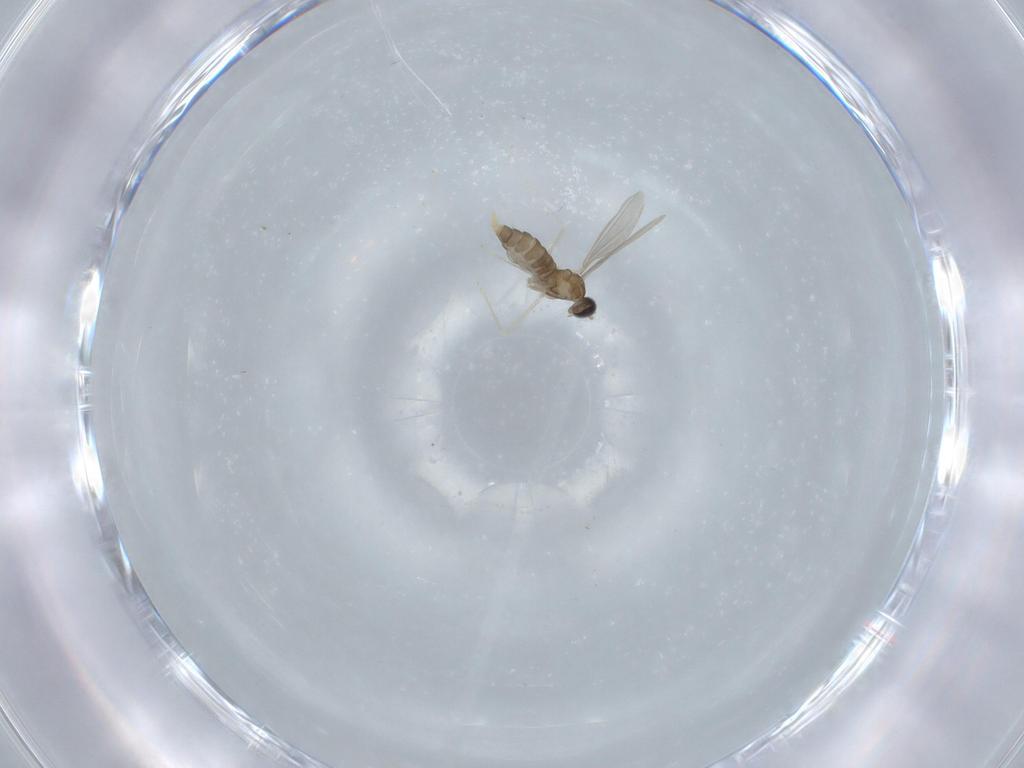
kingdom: Animalia
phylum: Arthropoda
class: Insecta
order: Diptera
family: Cecidomyiidae
